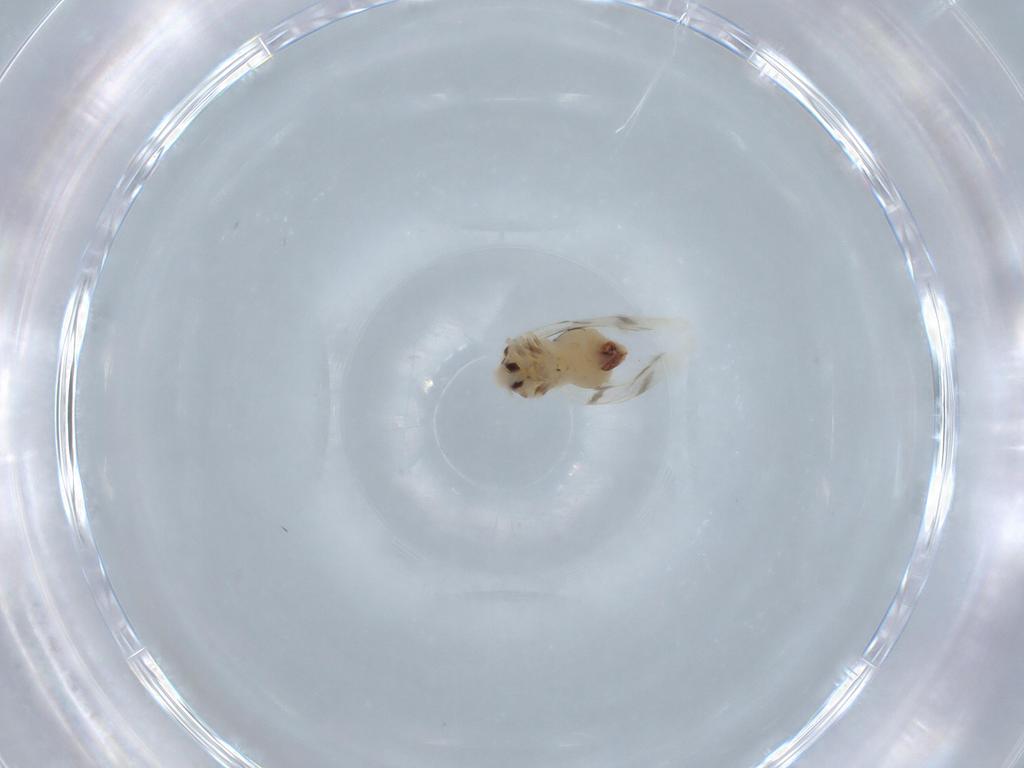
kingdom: Animalia
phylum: Arthropoda
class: Insecta
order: Hemiptera
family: Aleyrodidae
